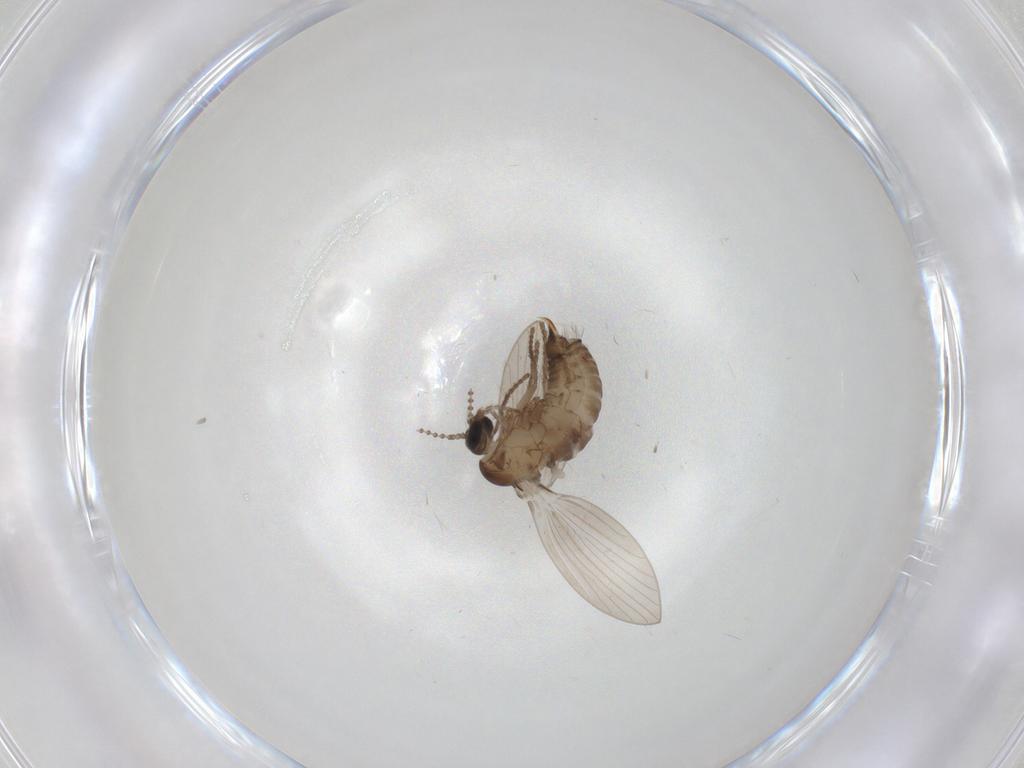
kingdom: Animalia
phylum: Arthropoda
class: Insecta
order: Diptera
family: Psychodidae
